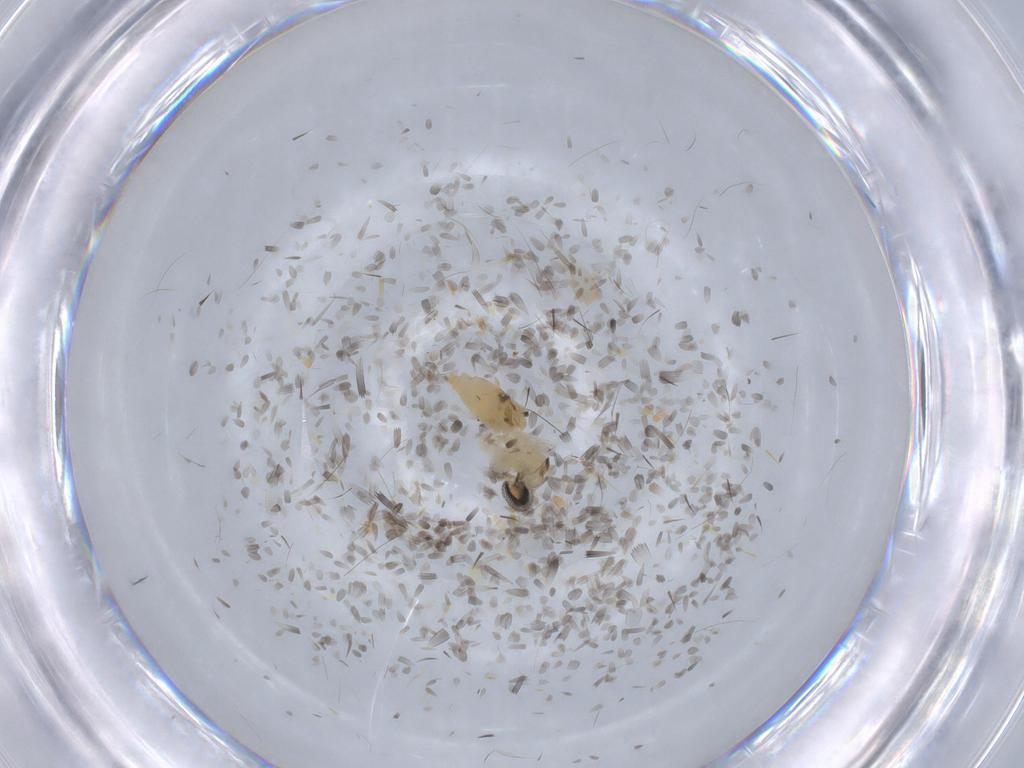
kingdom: Animalia
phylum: Arthropoda
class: Insecta
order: Diptera
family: Cecidomyiidae
